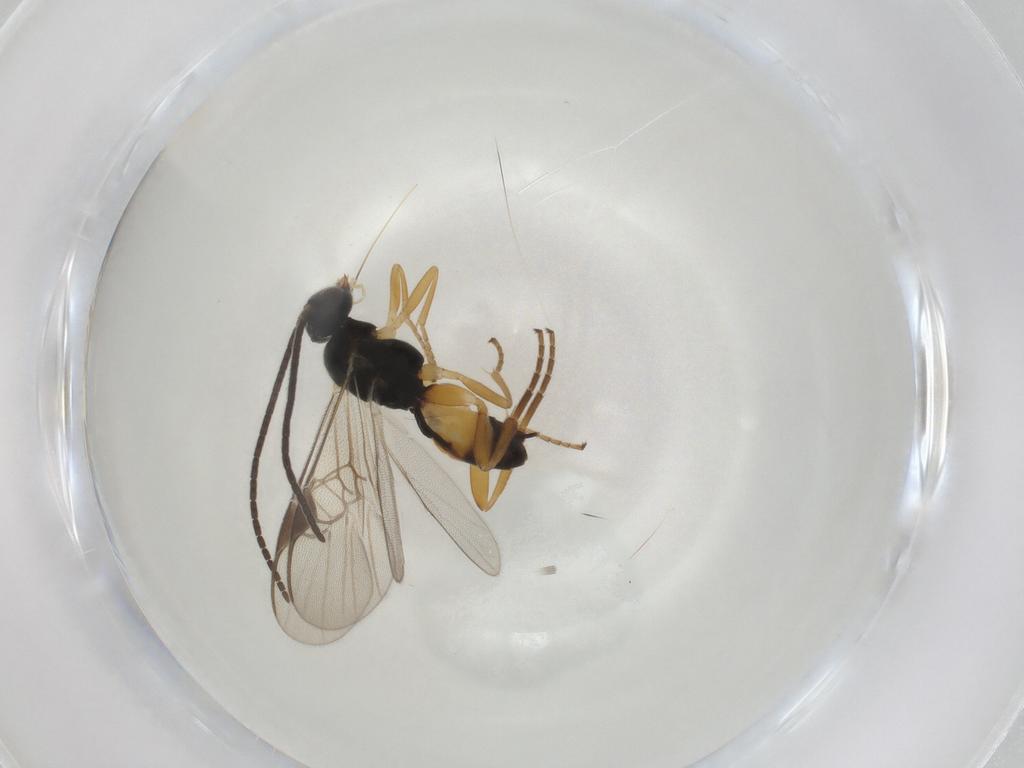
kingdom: Animalia
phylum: Arthropoda
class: Insecta
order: Hymenoptera
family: Braconidae
